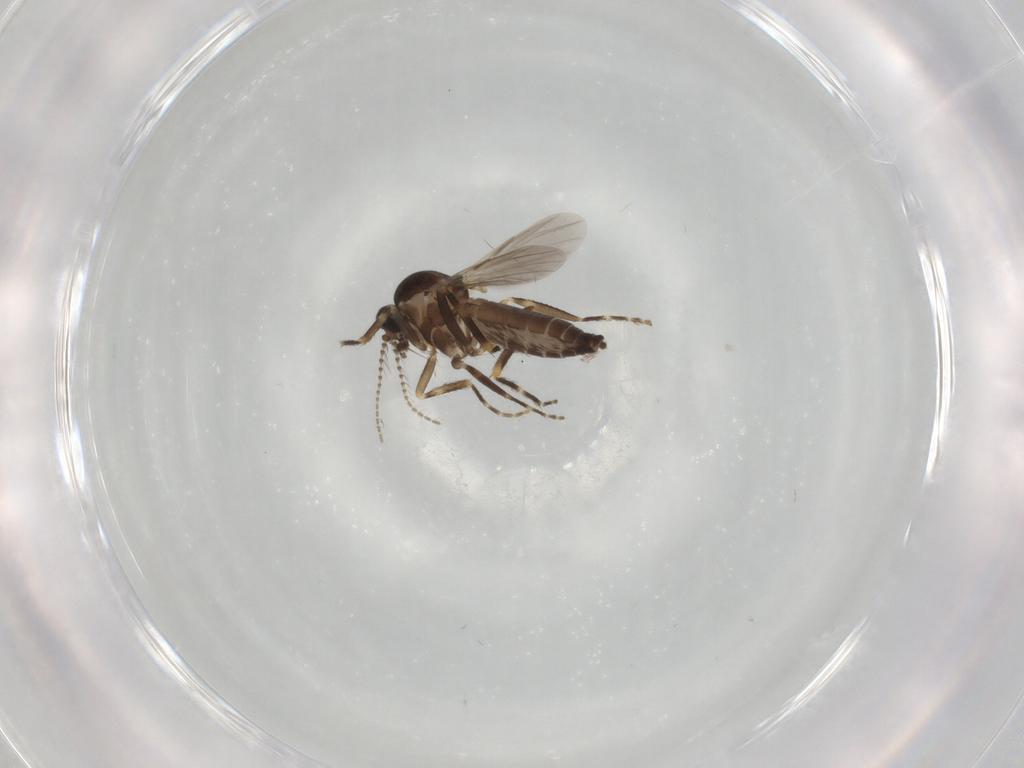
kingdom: Animalia
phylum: Arthropoda
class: Insecta
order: Diptera
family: Ceratopogonidae
